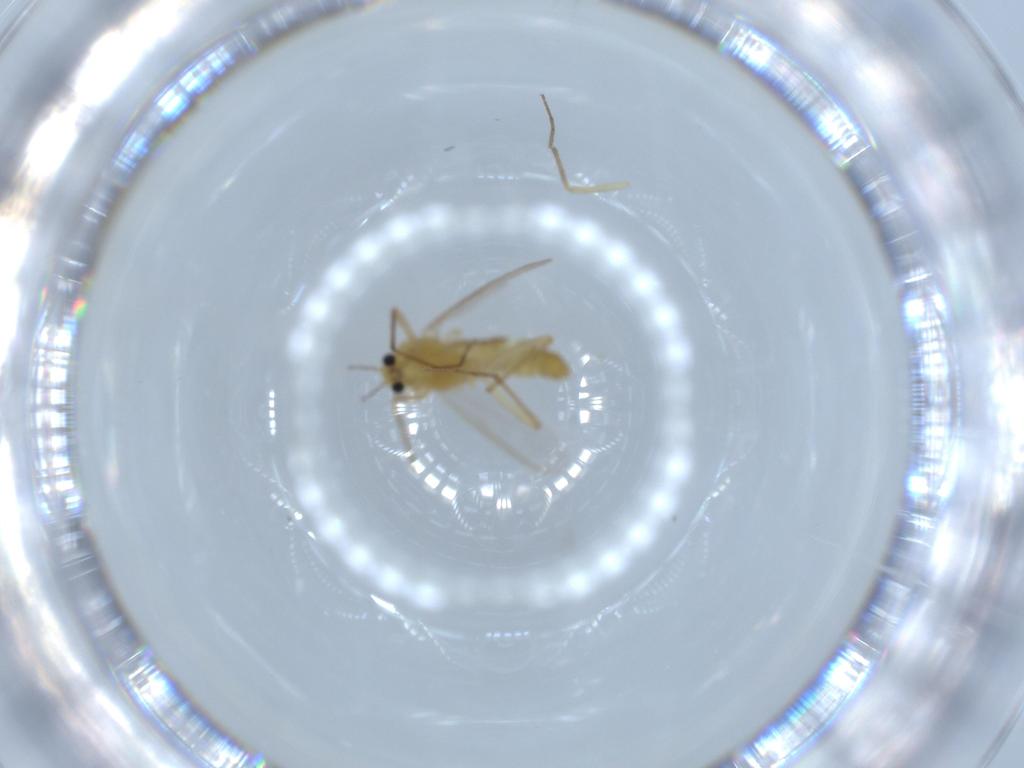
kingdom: Animalia
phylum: Arthropoda
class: Insecta
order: Diptera
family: Chironomidae
